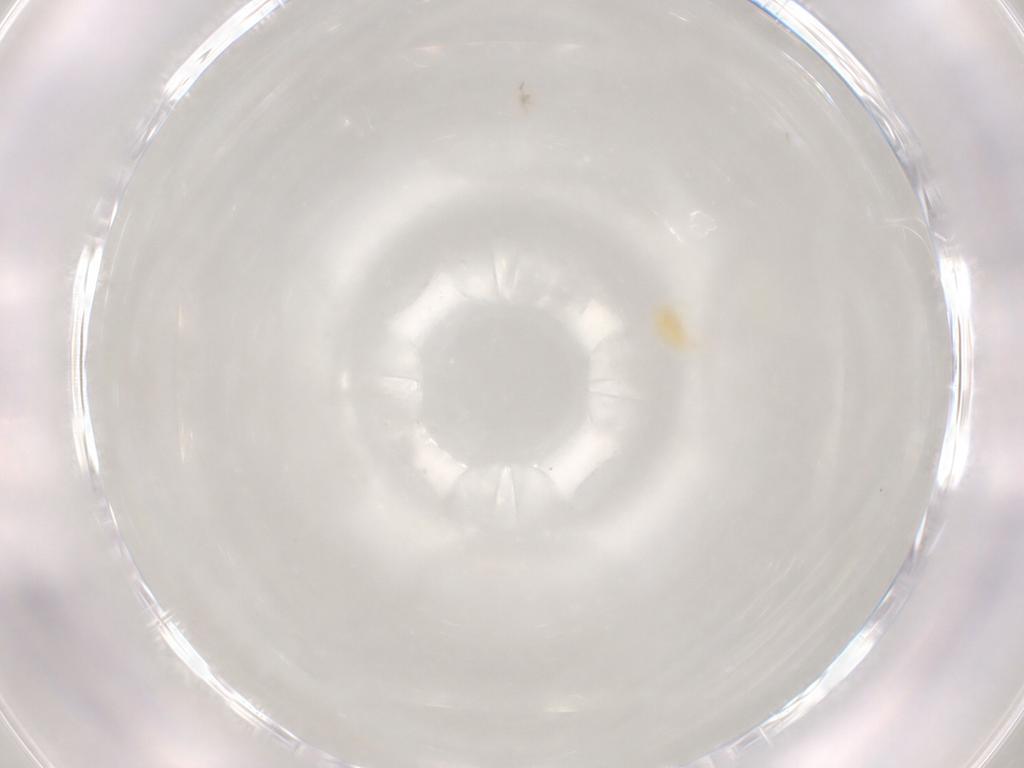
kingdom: Animalia
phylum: Arthropoda
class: Arachnida
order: Trombidiformes
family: Tetranychidae
